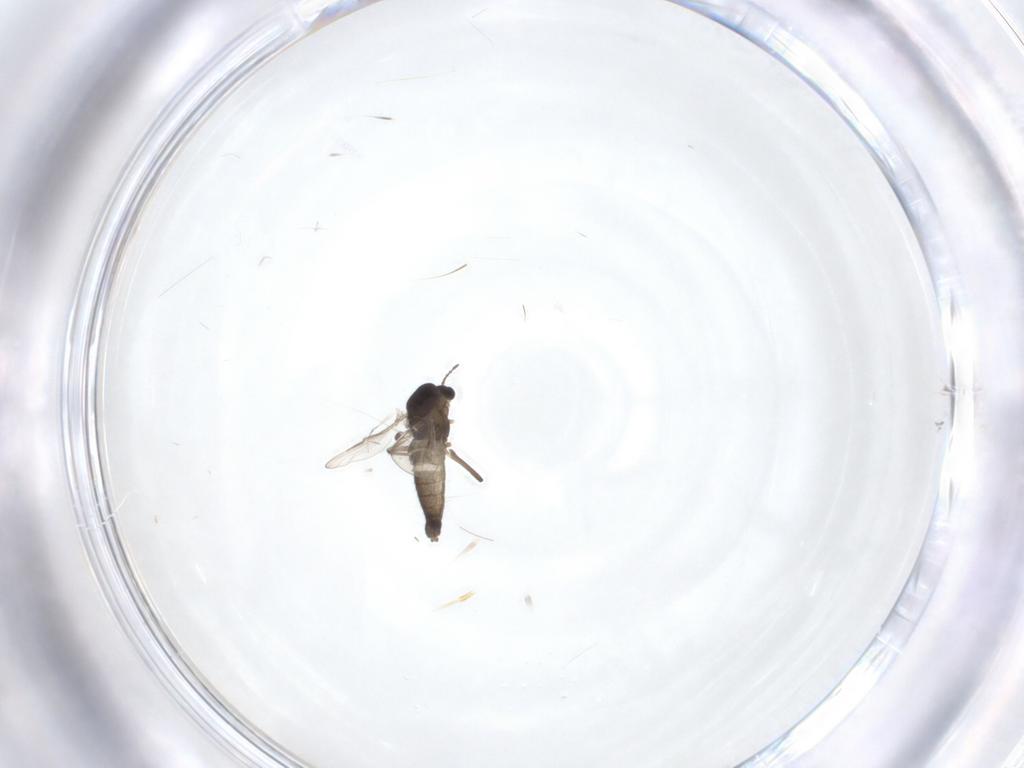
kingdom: Animalia
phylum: Arthropoda
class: Insecta
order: Diptera
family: Chironomidae
